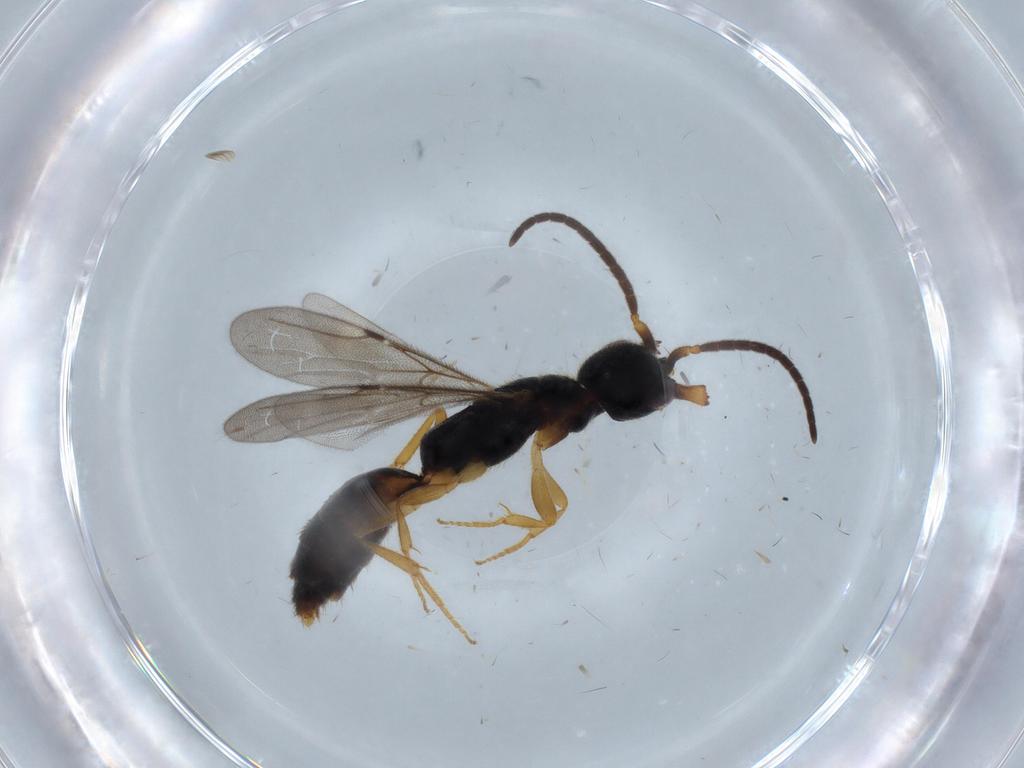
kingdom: Animalia
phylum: Arthropoda
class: Insecta
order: Hymenoptera
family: Bethylidae
